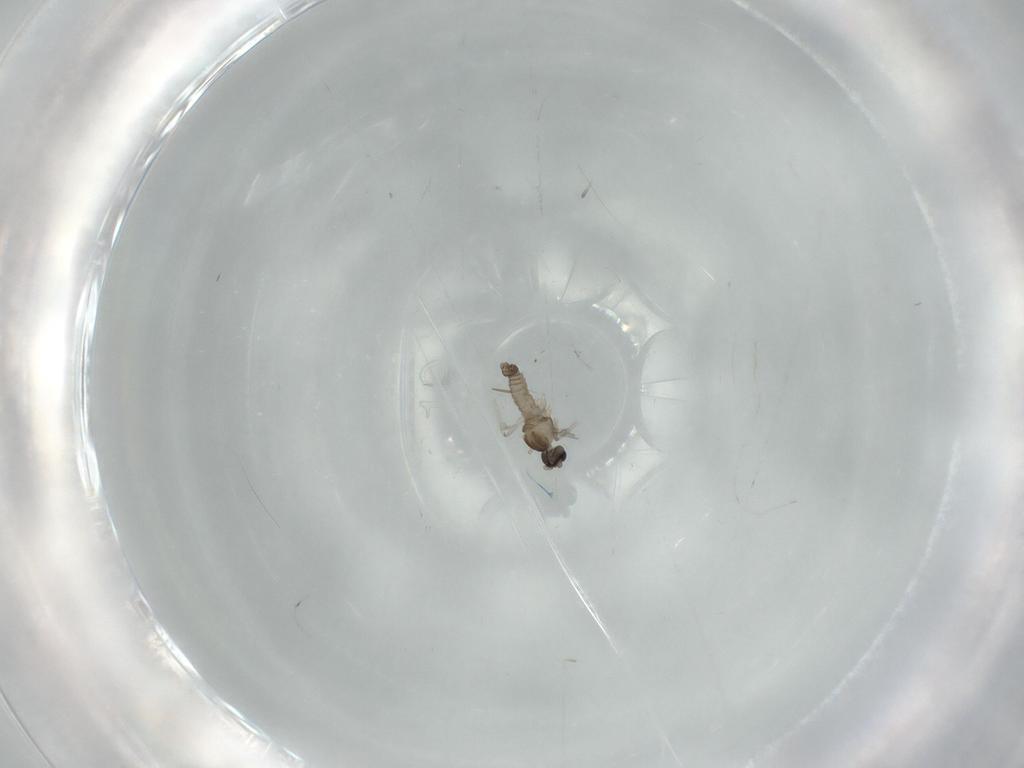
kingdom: Animalia
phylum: Arthropoda
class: Insecta
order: Diptera
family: Cecidomyiidae
